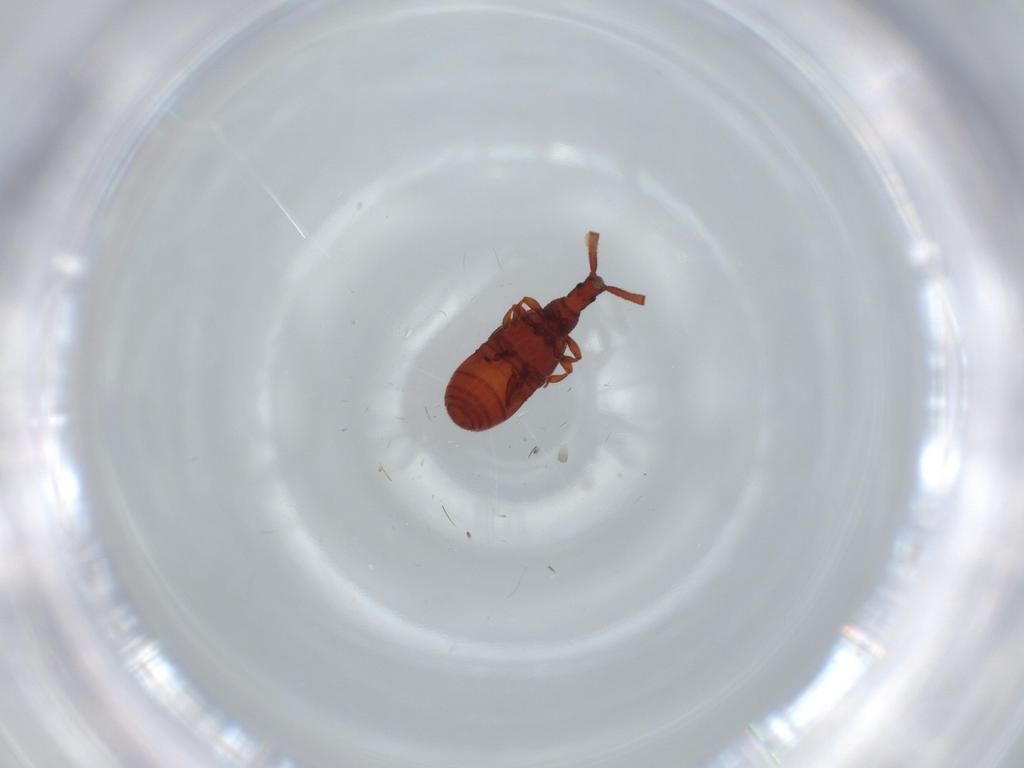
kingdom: Animalia
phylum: Arthropoda
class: Insecta
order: Coleoptera
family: Staphylinidae
